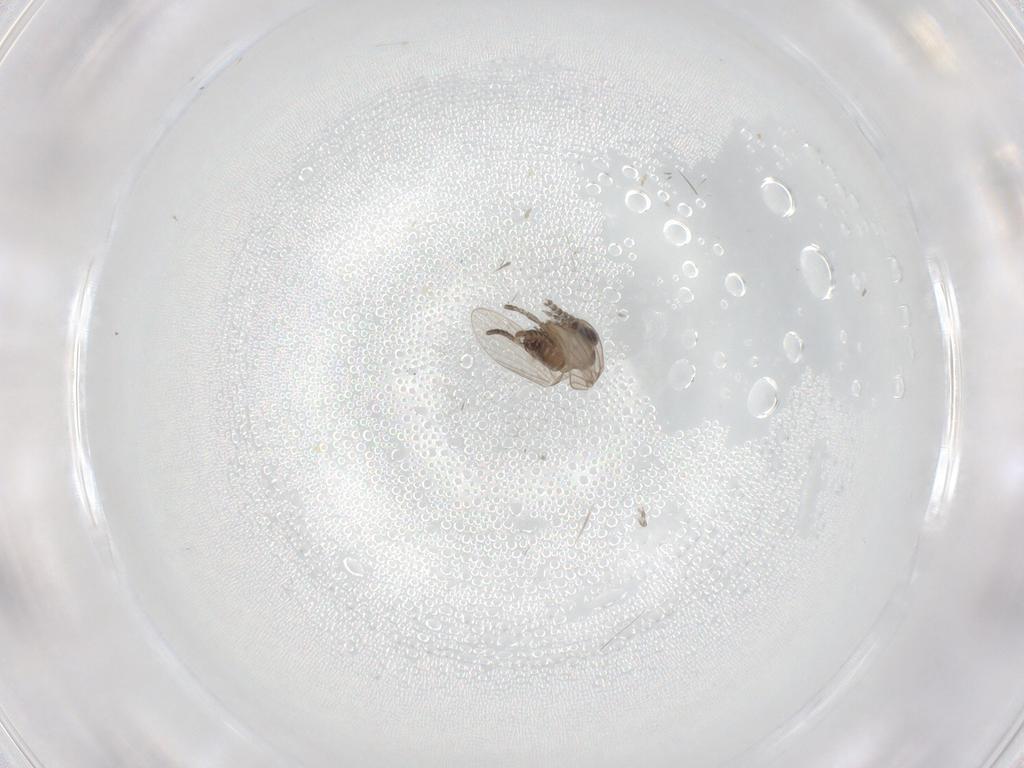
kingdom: Animalia
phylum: Arthropoda
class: Insecta
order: Diptera
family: Psychodidae
